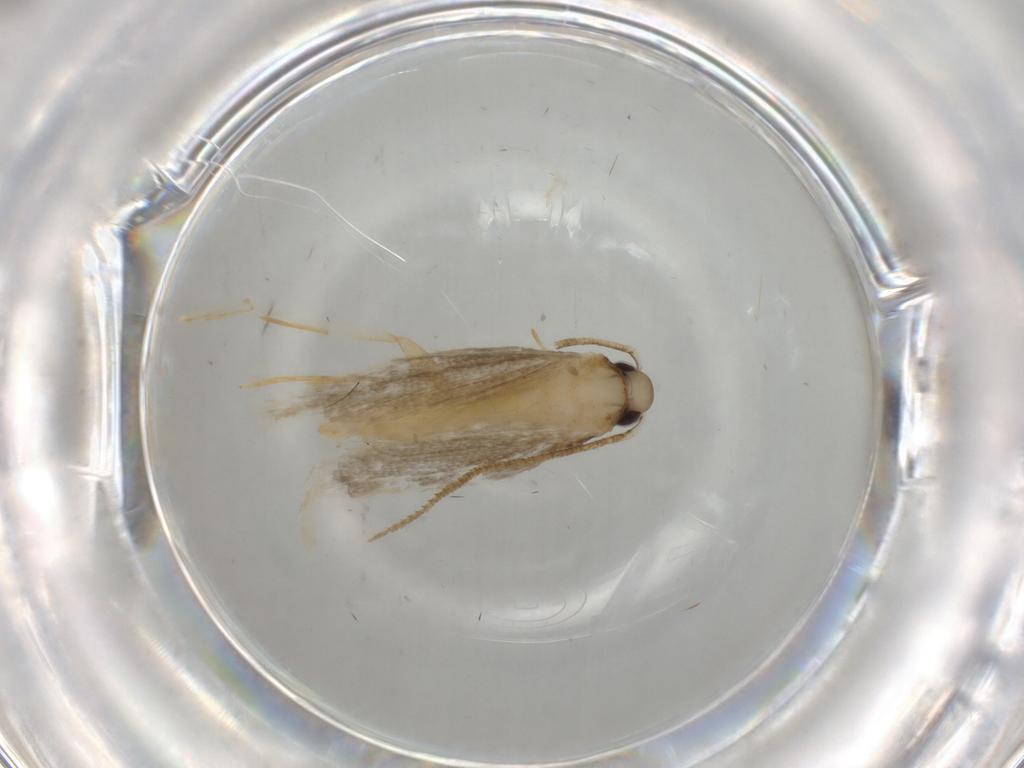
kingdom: Animalia
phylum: Arthropoda
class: Insecta
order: Lepidoptera
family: Gelechiidae
